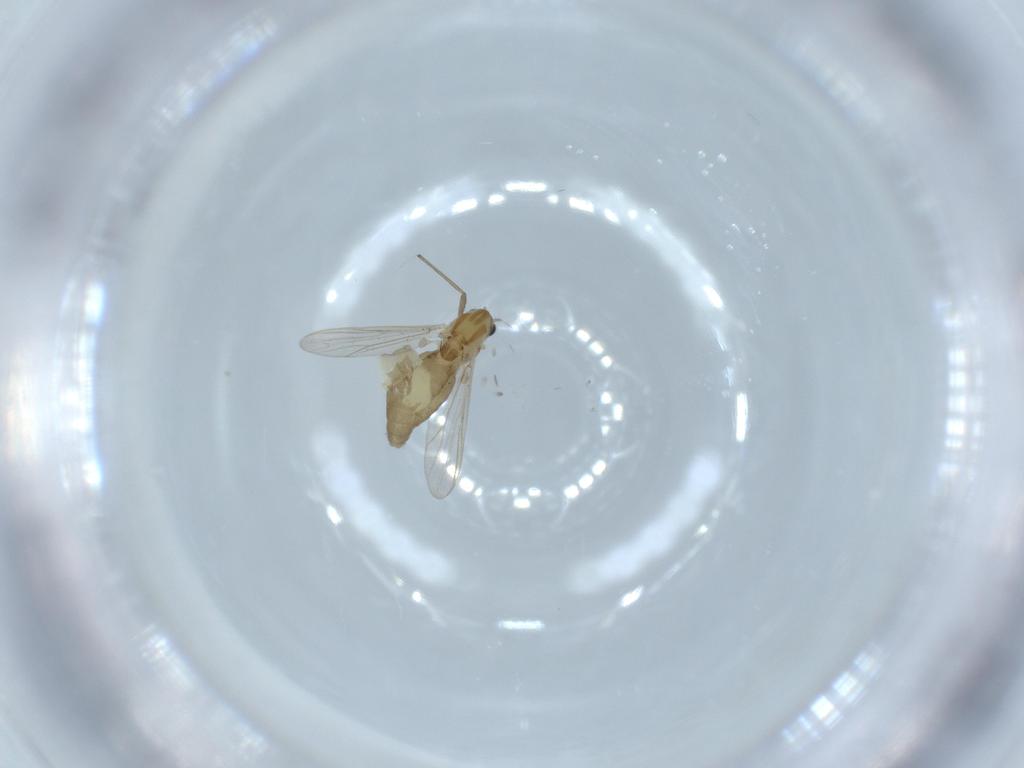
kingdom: Animalia
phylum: Arthropoda
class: Insecta
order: Diptera
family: Chironomidae
